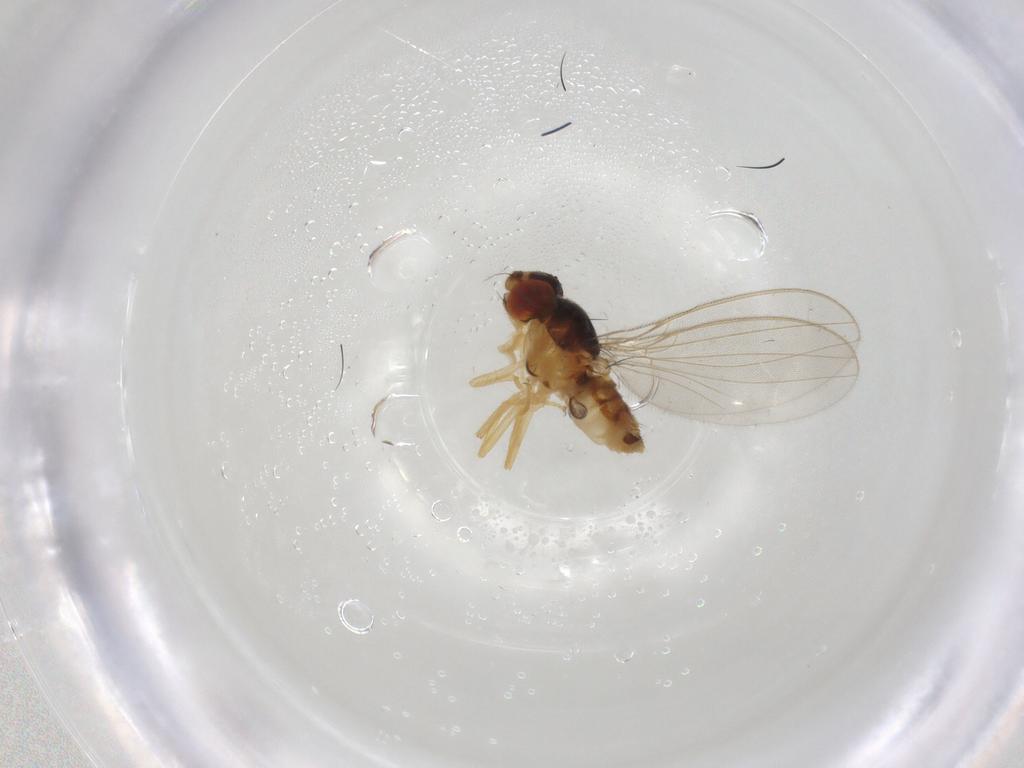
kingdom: Animalia
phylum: Arthropoda
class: Insecta
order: Diptera
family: Chironomidae
